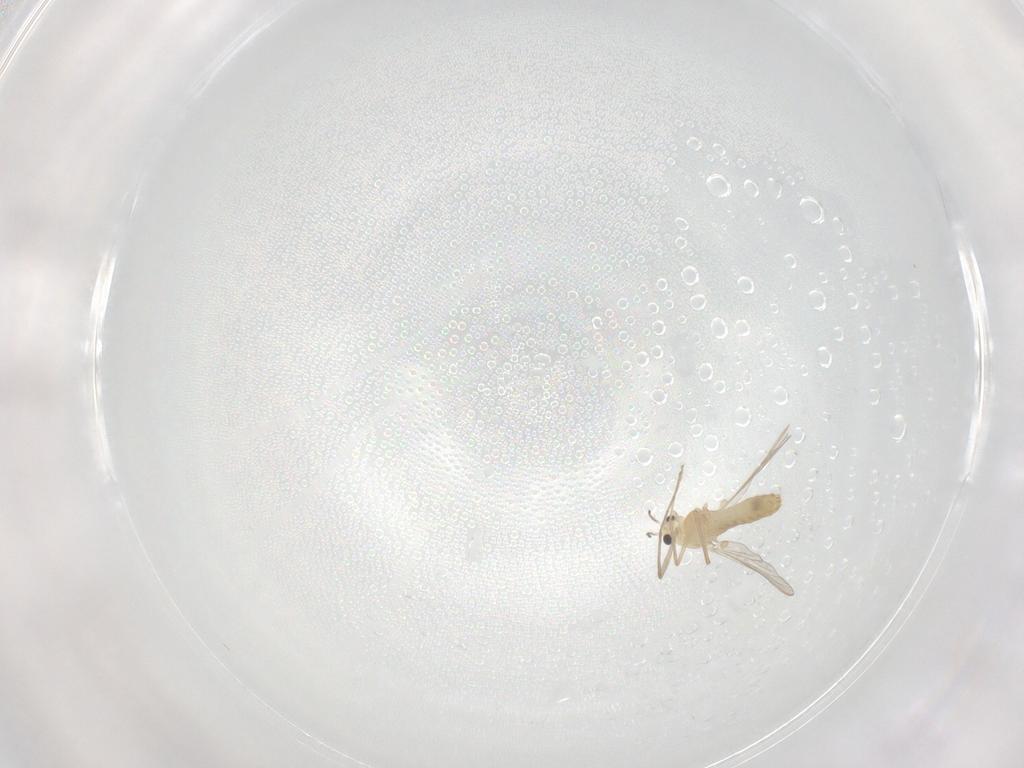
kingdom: Animalia
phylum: Arthropoda
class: Insecta
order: Diptera
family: Chironomidae
